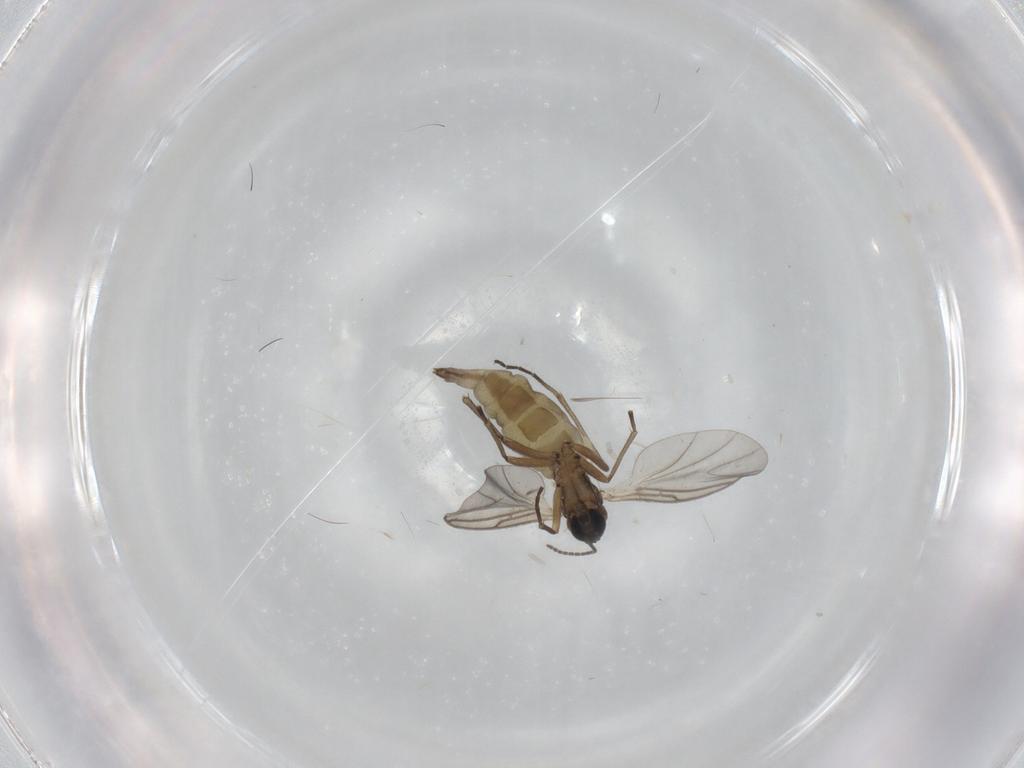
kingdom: Animalia
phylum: Arthropoda
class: Insecta
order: Diptera
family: Sciaridae
